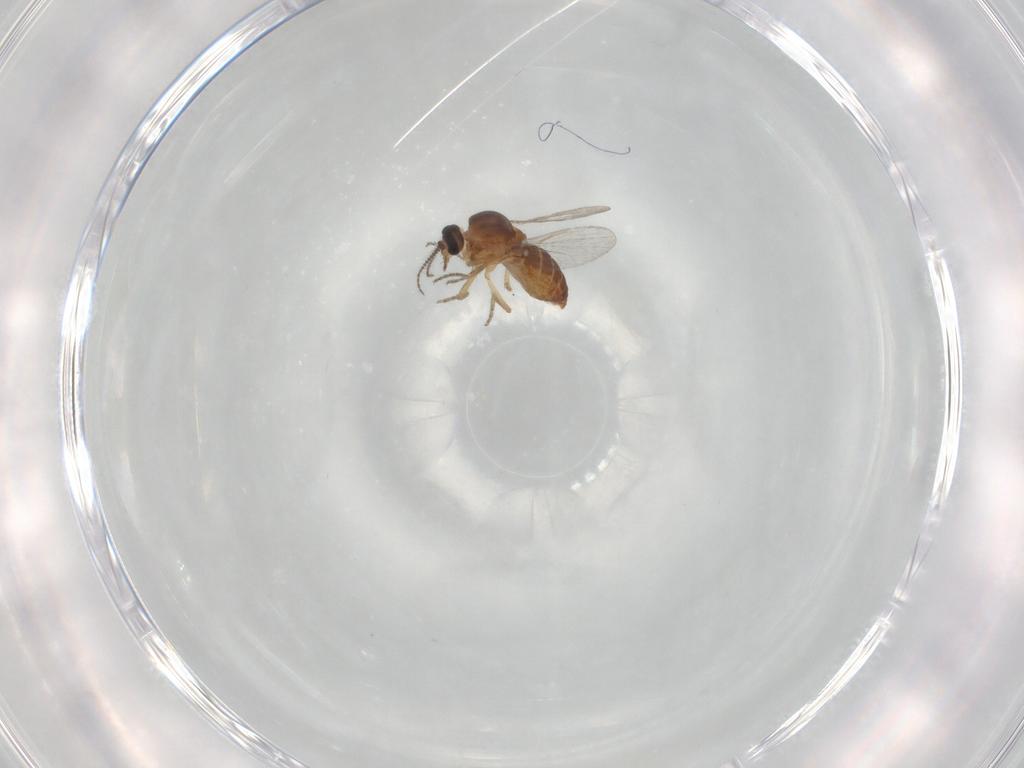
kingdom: Animalia
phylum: Arthropoda
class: Insecta
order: Diptera
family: Ceratopogonidae
